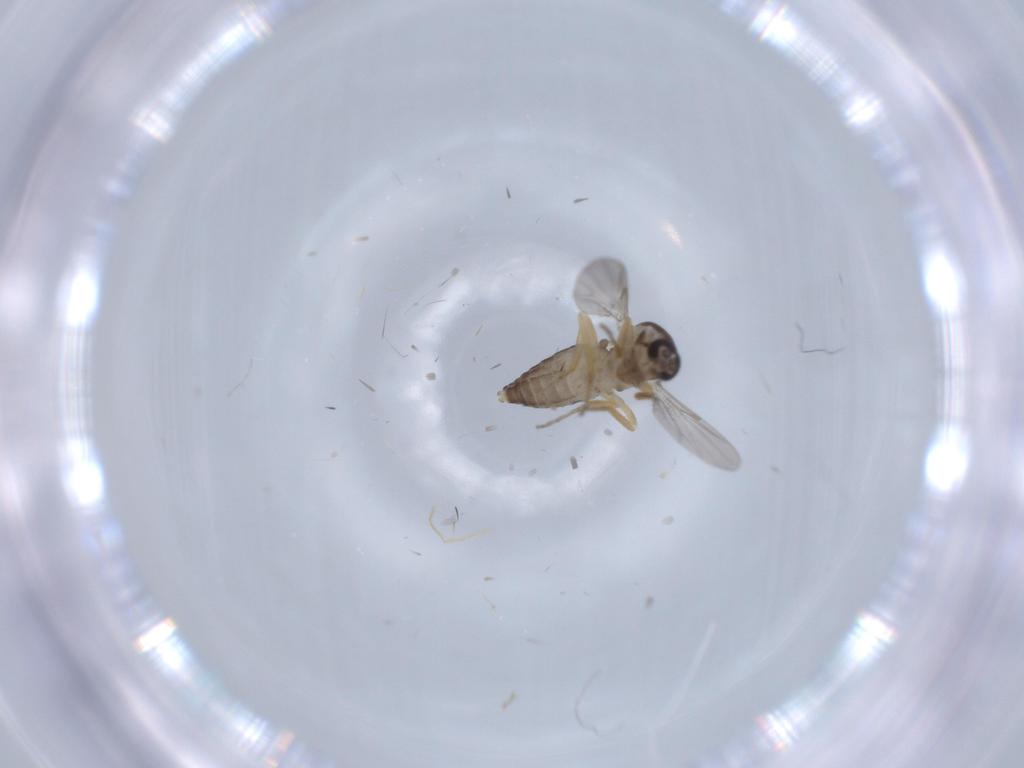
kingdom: Animalia
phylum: Arthropoda
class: Insecta
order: Diptera
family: Ceratopogonidae
